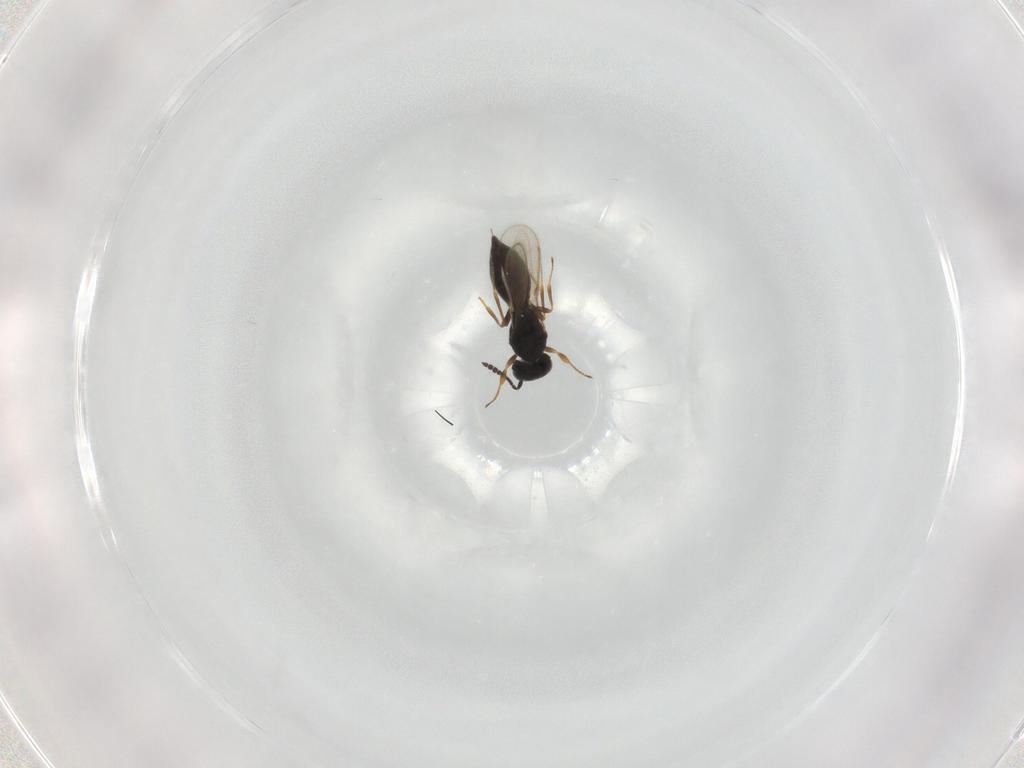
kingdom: Animalia
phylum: Arthropoda
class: Insecta
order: Hymenoptera
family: Scelionidae
